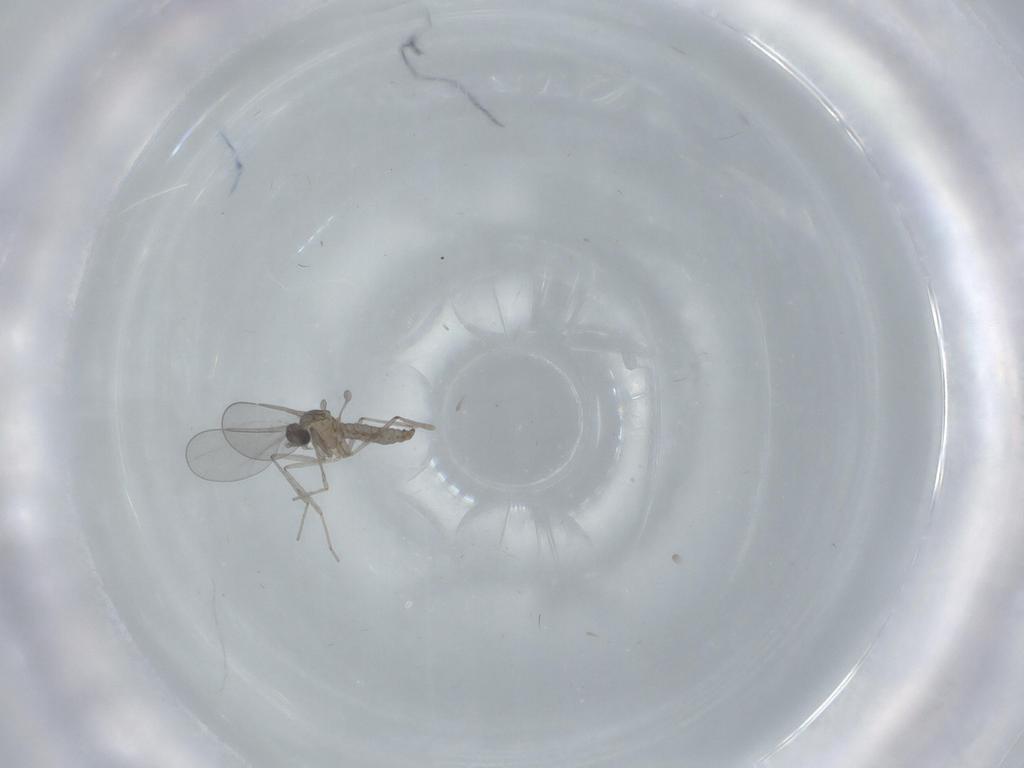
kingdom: Animalia
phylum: Arthropoda
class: Insecta
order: Diptera
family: Cecidomyiidae
